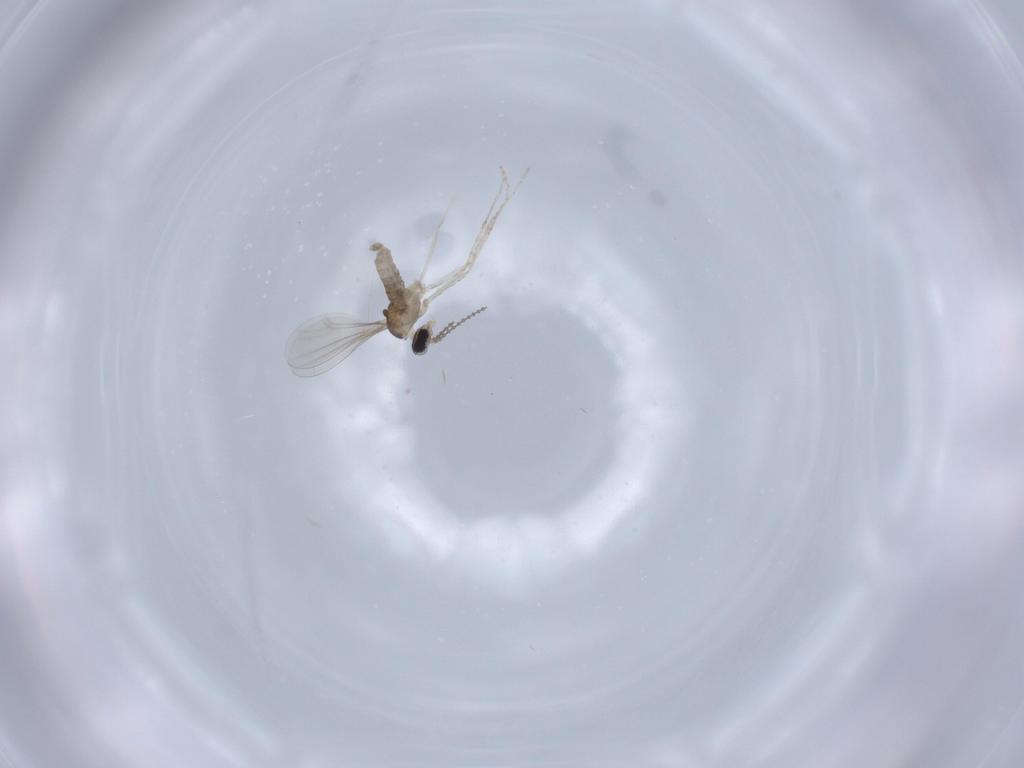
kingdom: Animalia
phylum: Arthropoda
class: Insecta
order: Diptera
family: Cecidomyiidae
